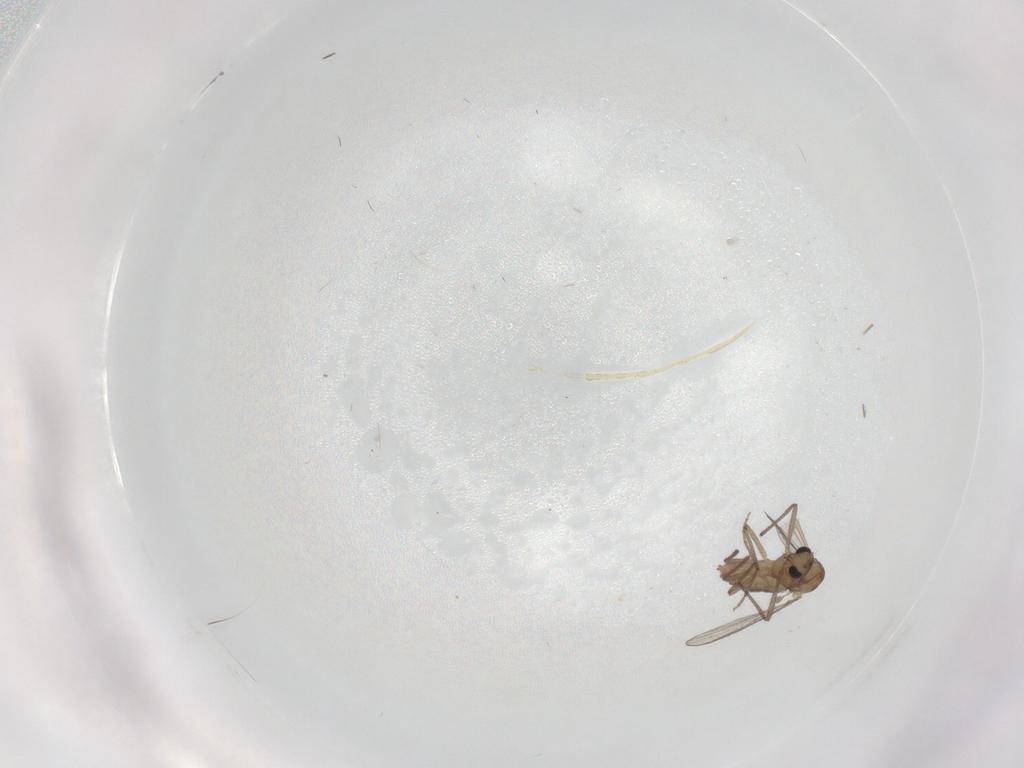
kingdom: Animalia
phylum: Arthropoda
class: Insecta
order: Diptera
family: Chironomidae
